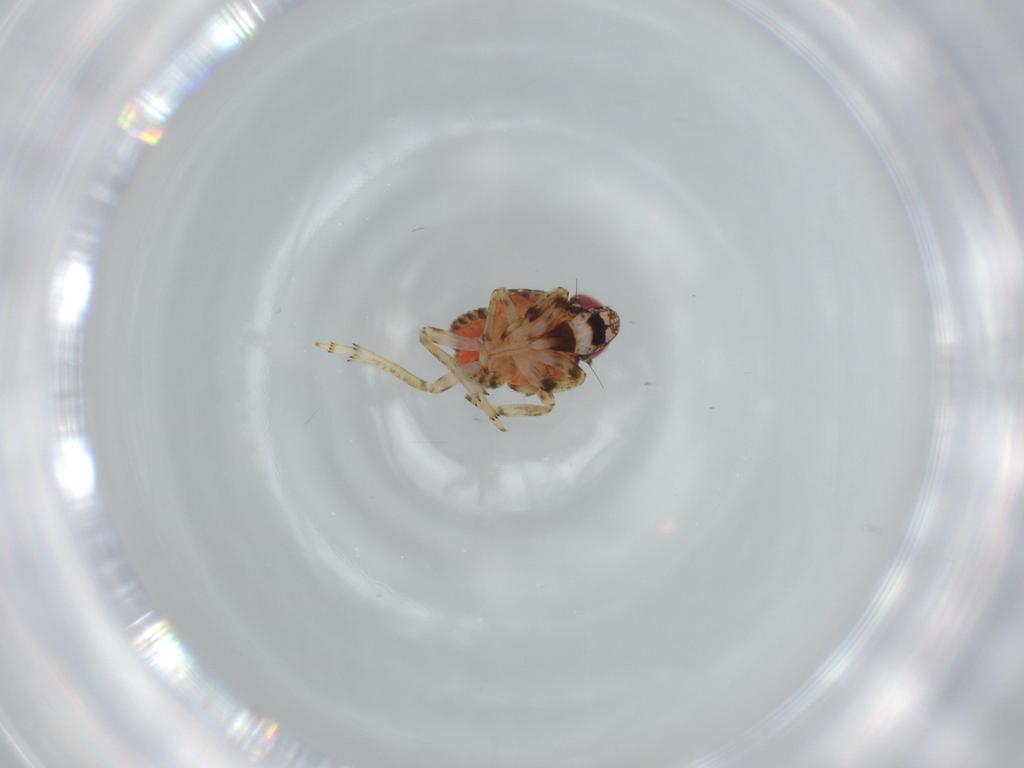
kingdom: Animalia
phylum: Arthropoda
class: Insecta
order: Hemiptera
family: Issidae
